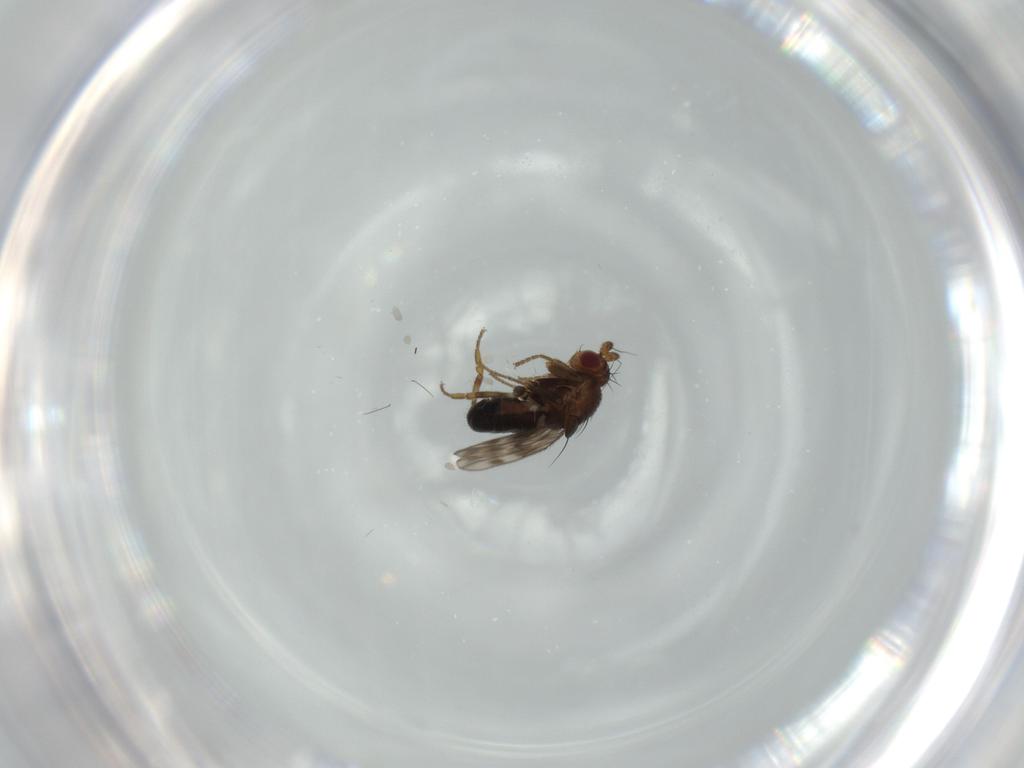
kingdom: Animalia
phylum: Arthropoda
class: Insecta
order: Diptera
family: Sphaeroceridae
